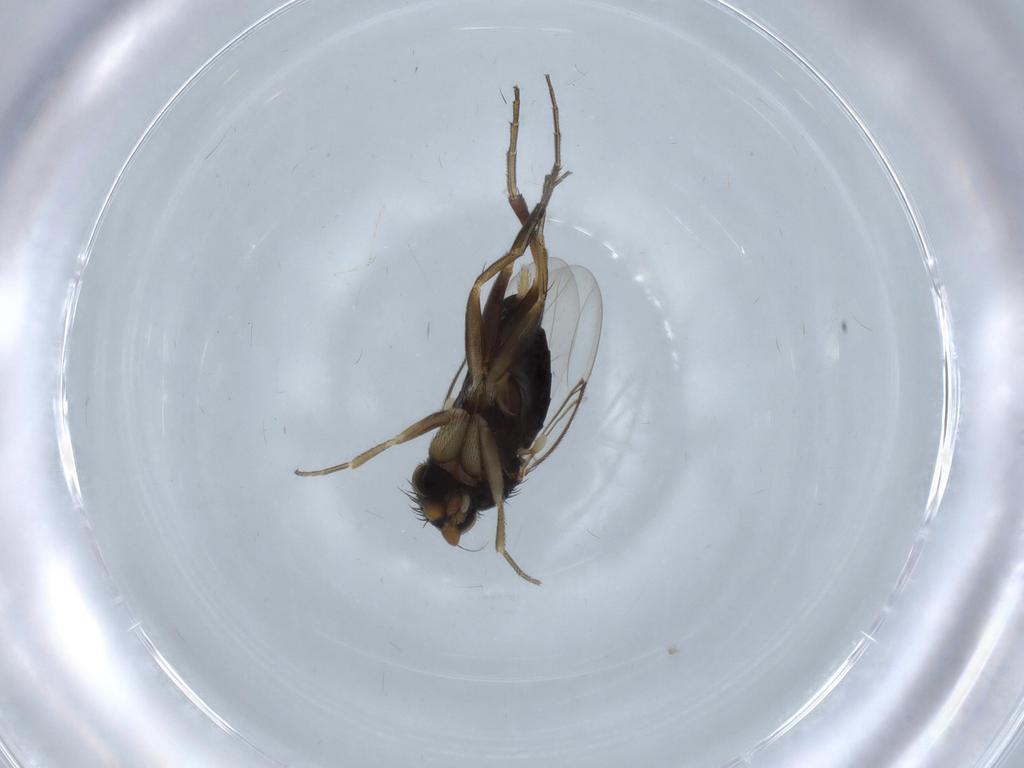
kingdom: Animalia
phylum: Arthropoda
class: Insecta
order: Diptera
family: Phoridae
